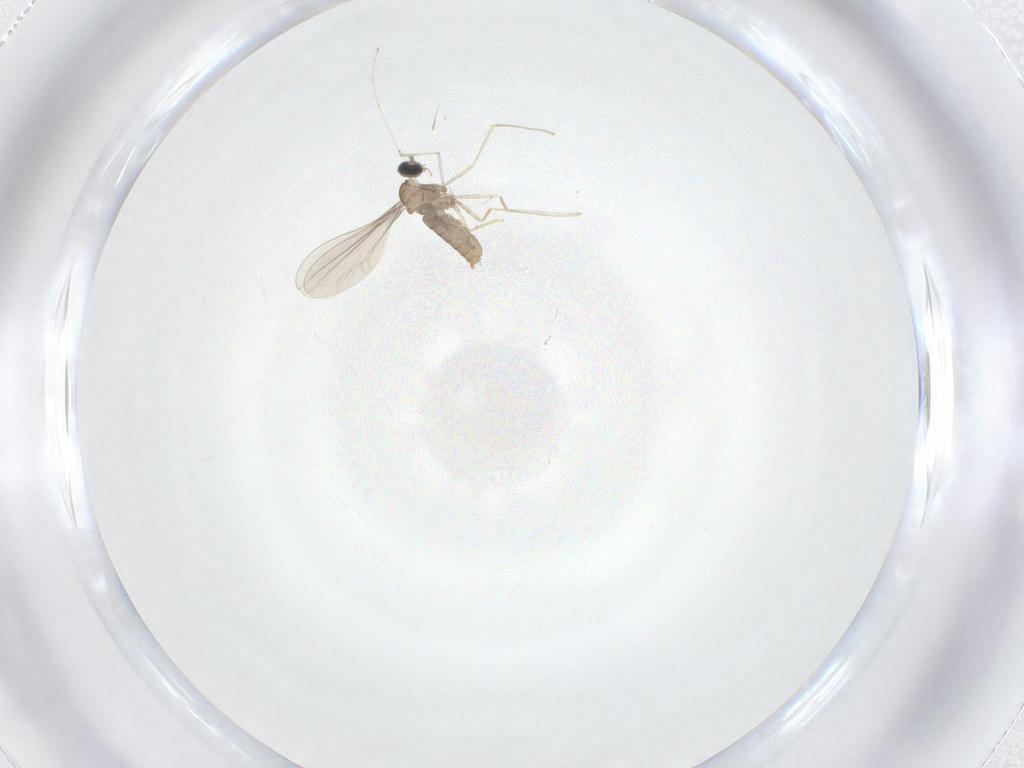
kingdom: Animalia
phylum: Arthropoda
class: Insecta
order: Diptera
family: Cecidomyiidae
